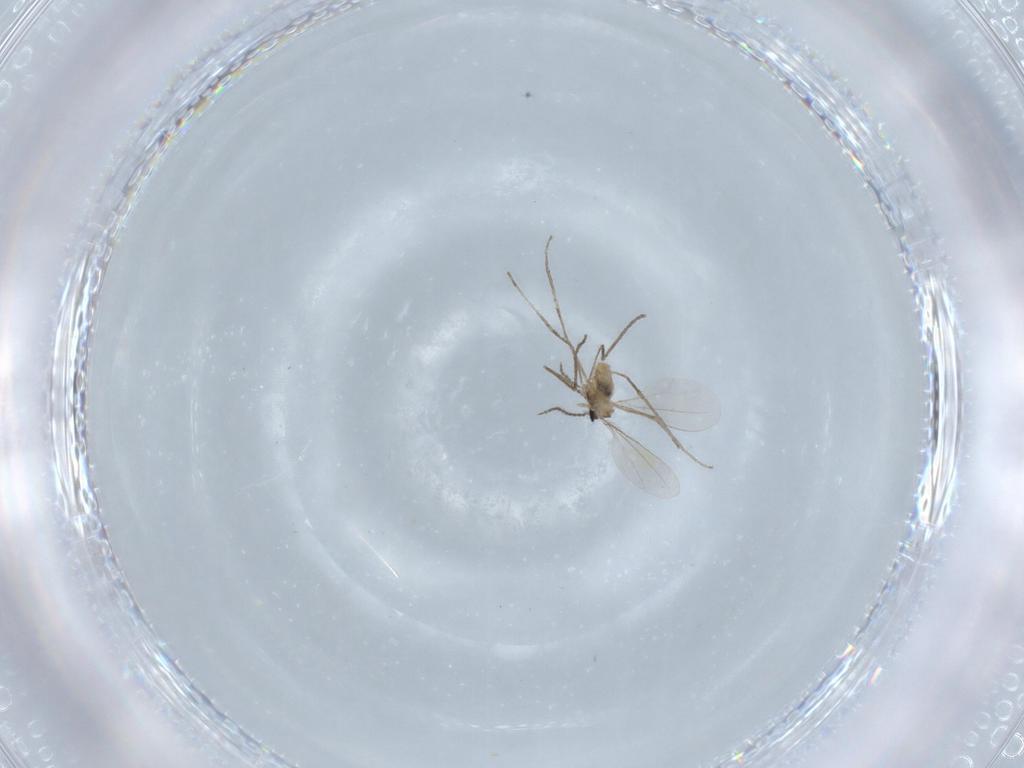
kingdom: Animalia
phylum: Arthropoda
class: Insecta
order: Diptera
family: Cecidomyiidae
